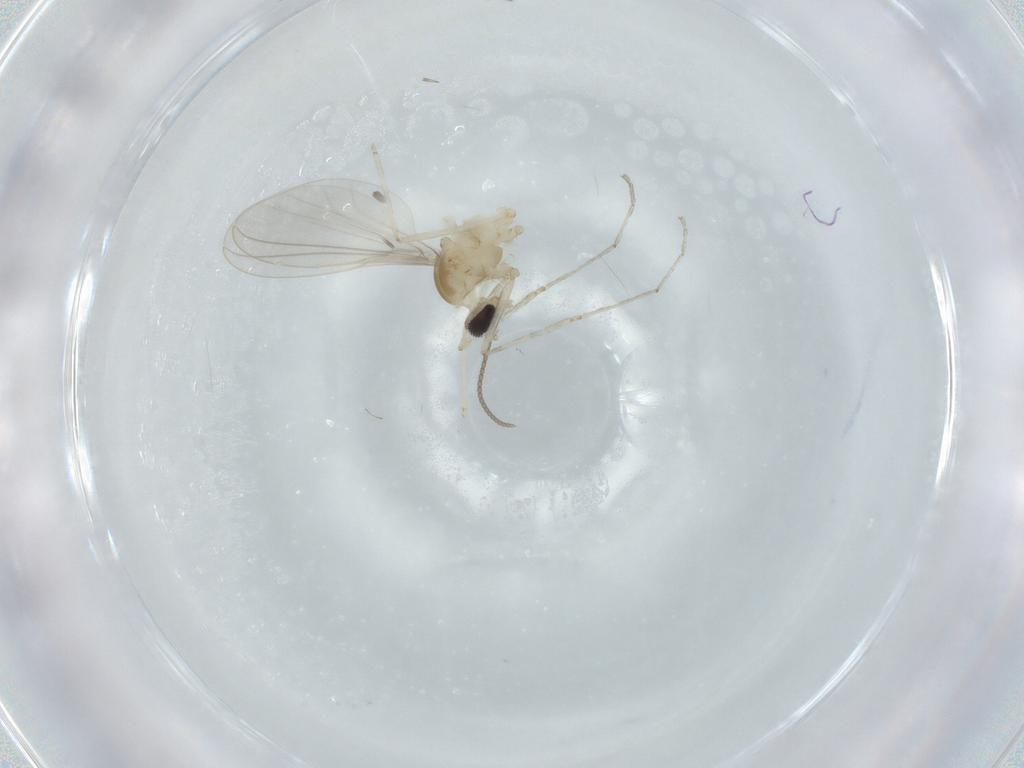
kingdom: Animalia
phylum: Arthropoda
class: Insecta
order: Diptera
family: Cecidomyiidae
